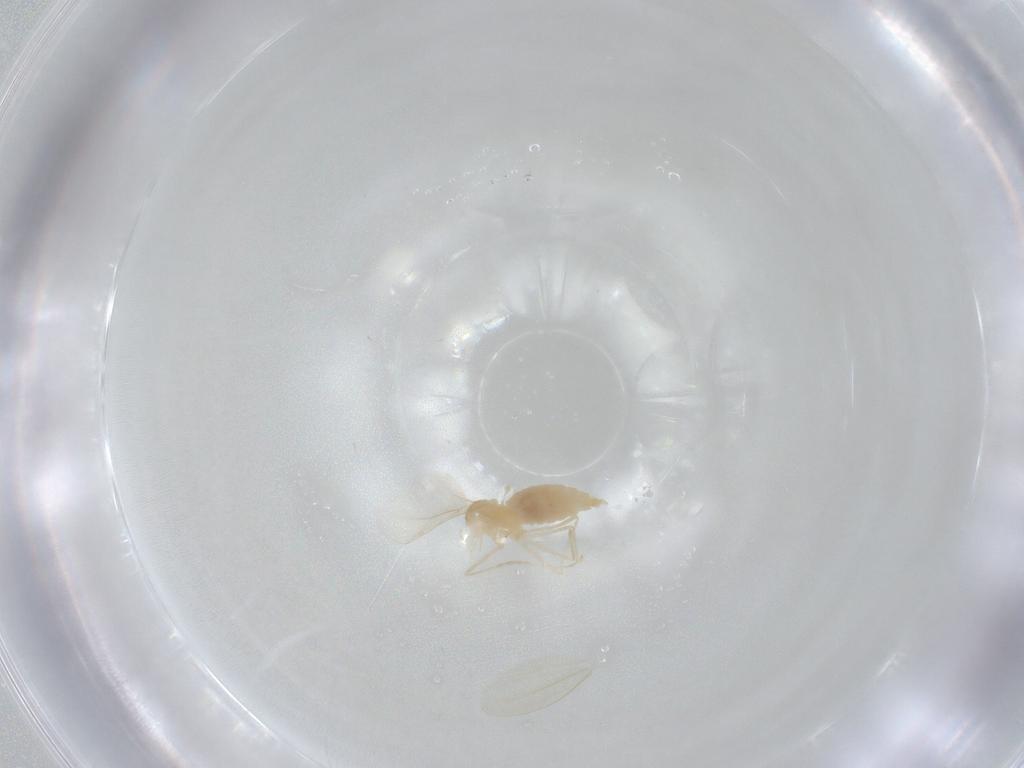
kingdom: Animalia
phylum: Arthropoda
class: Insecta
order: Diptera
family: Cecidomyiidae
